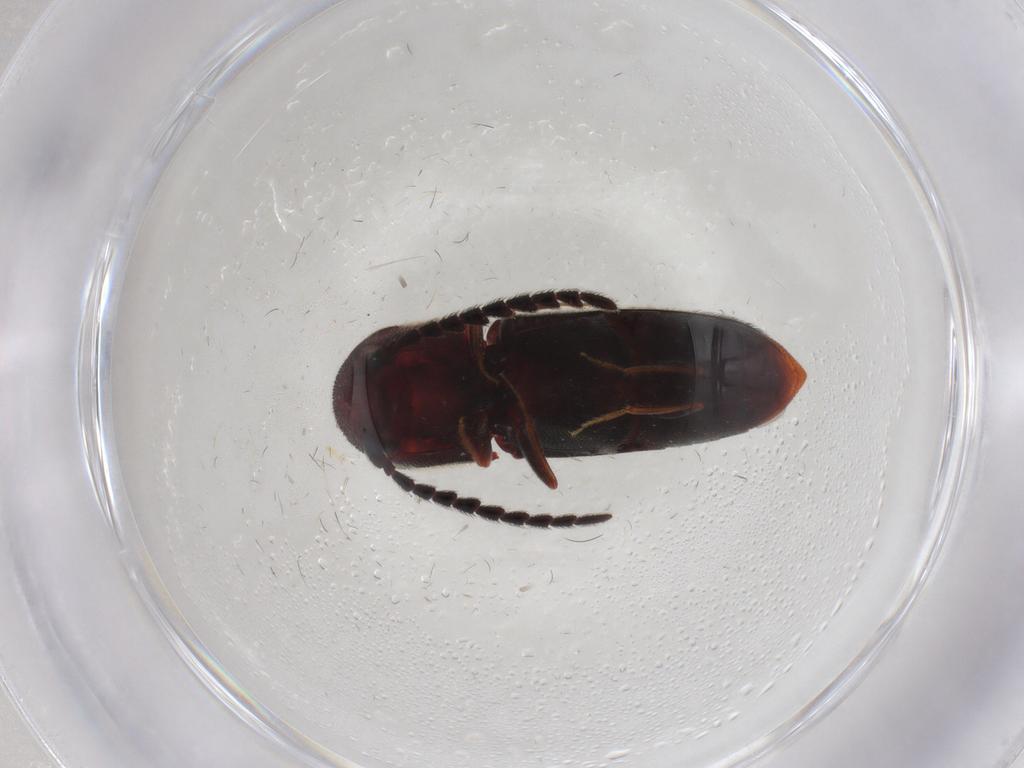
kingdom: Animalia
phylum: Arthropoda
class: Insecta
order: Coleoptera
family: Eucnemidae
